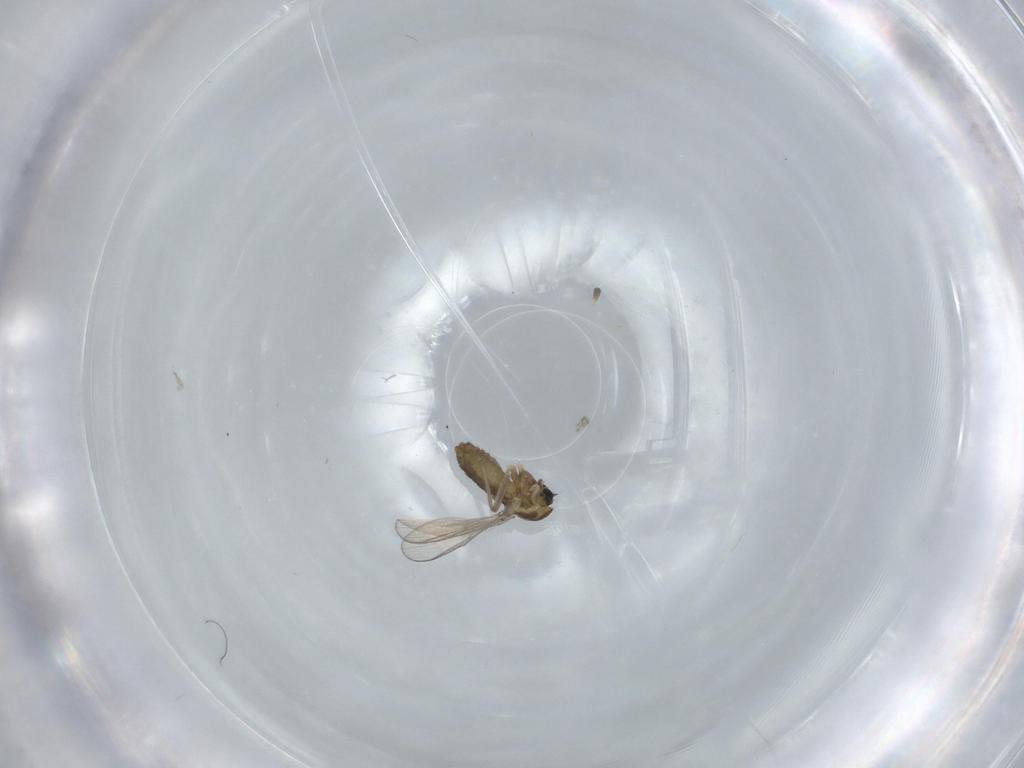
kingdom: Animalia
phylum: Arthropoda
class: Insecta
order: Diptera
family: Chironomidae
